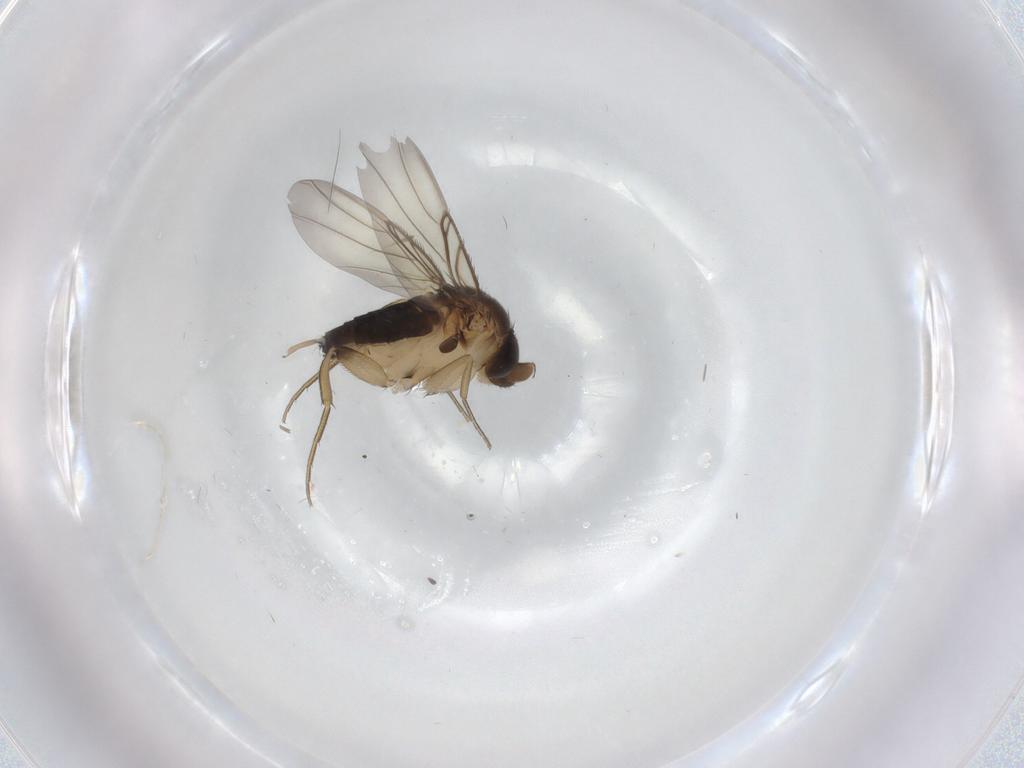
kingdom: Animalia
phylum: Arthropoda
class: Insecta
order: Diptera
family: Phoridae
